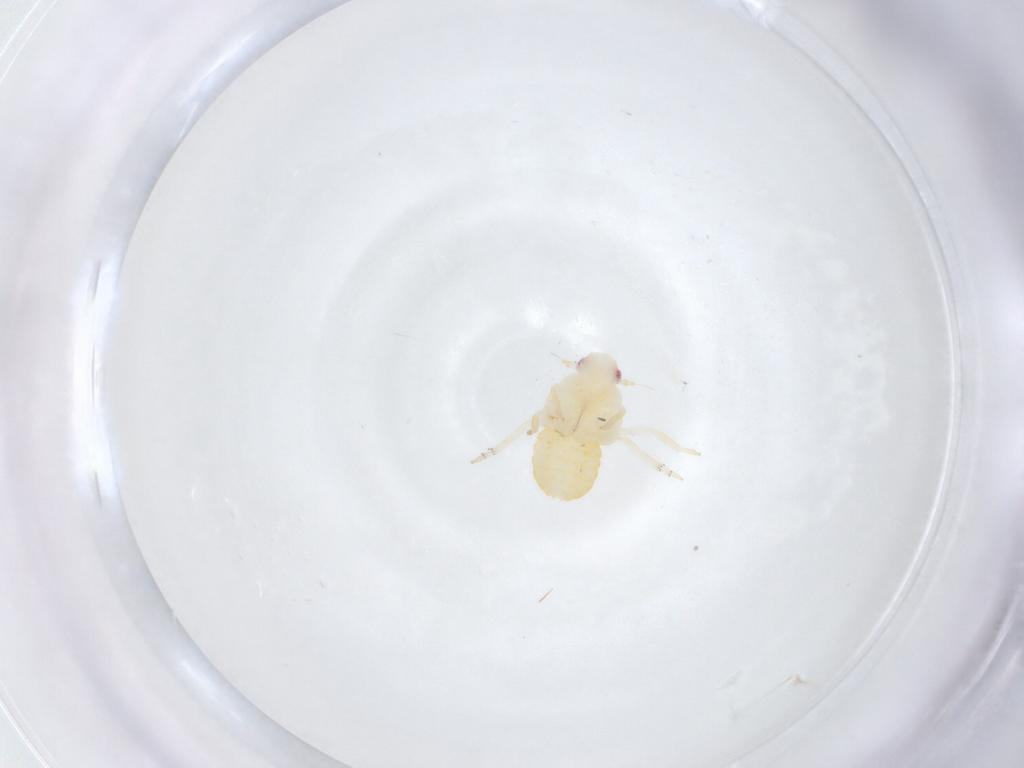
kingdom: Animalia
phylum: Arthropoda
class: Insecta
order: Hemiptera
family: Fulgoroidea_incertae_sedis
